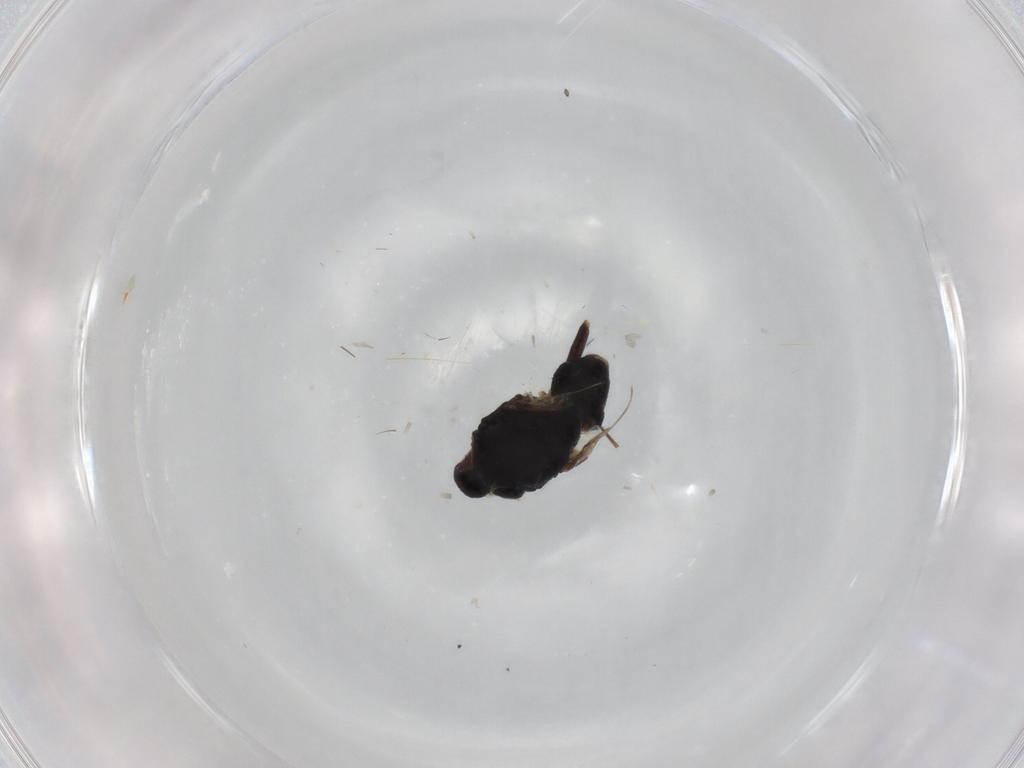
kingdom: Animalia
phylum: Arthropoda
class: Insecta
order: Diptera
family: Chloropidae
